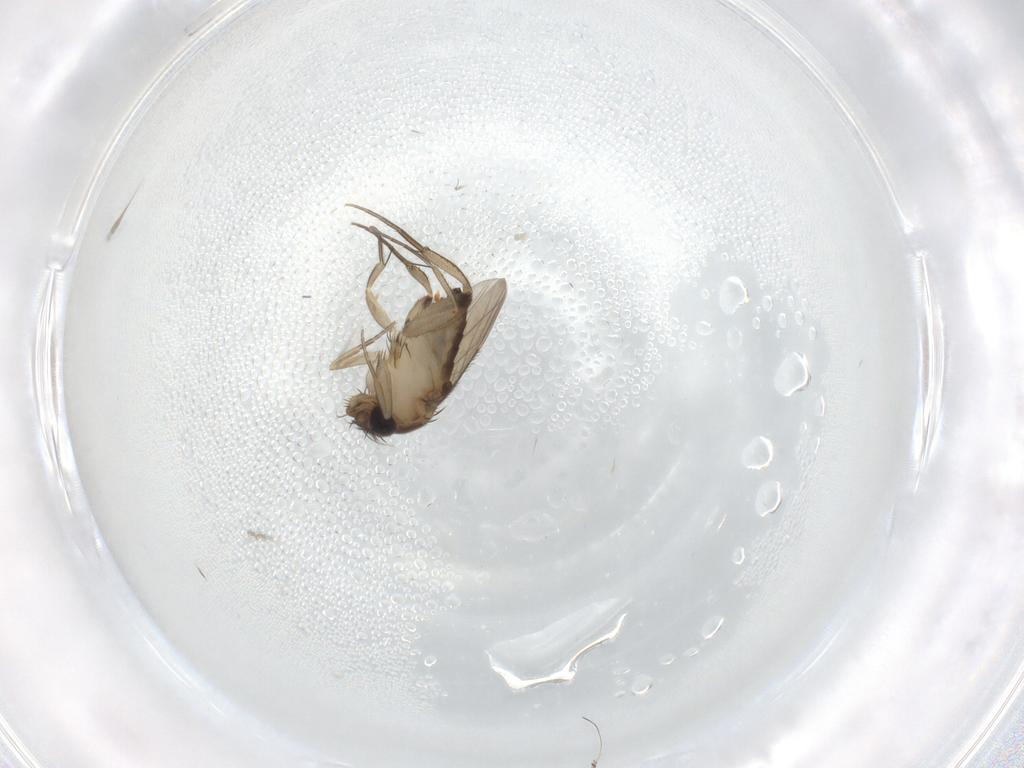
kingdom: Animalia
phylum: Arthropoda
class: Insecta
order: Diptera
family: Phoridae
